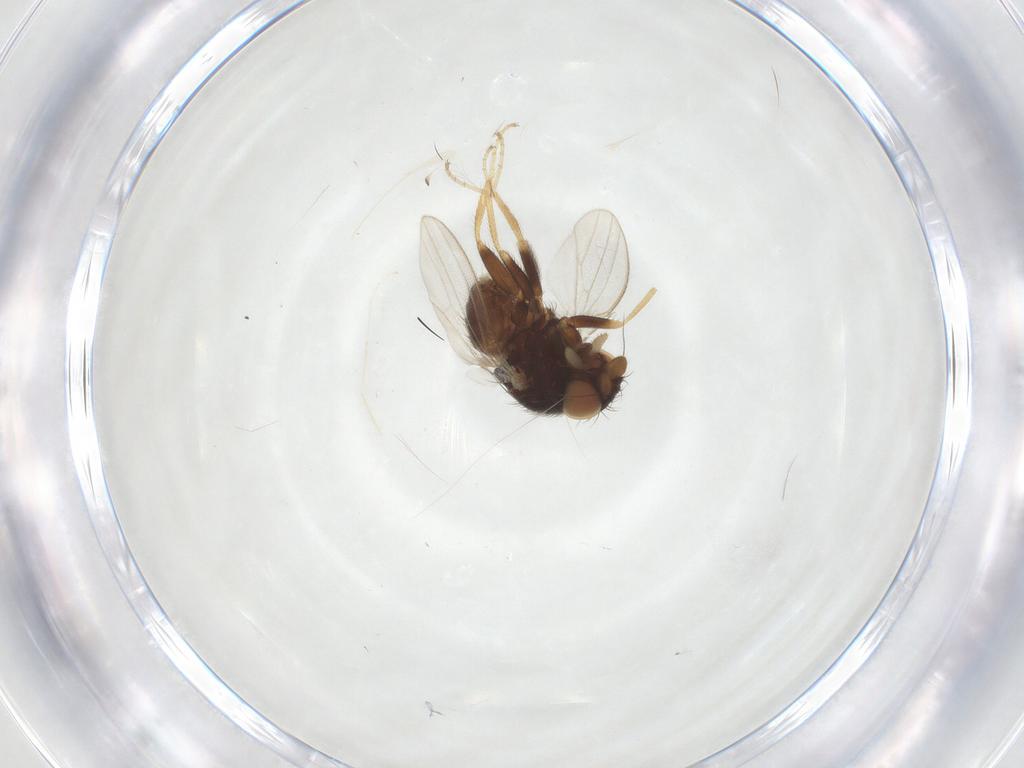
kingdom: Animalia
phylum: Arthropoda
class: Insecta
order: Diptera
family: Milichiidae
